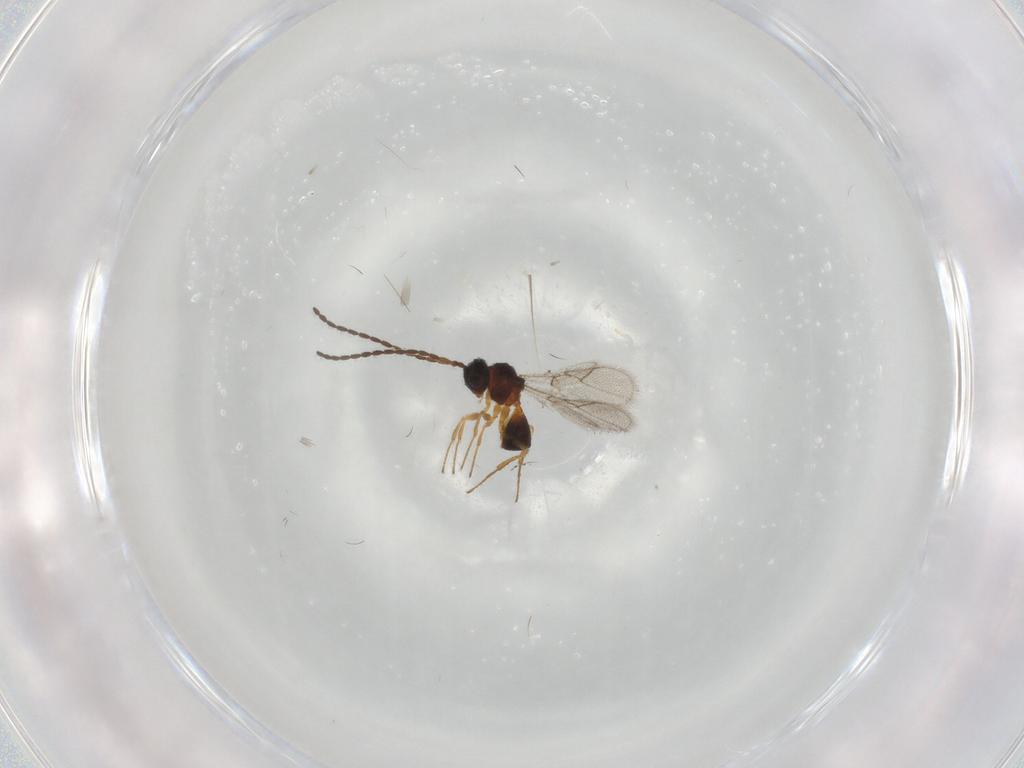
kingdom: Animalia
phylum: Arthropoda
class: Insecta
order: Hymenoptera
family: Figitidae
